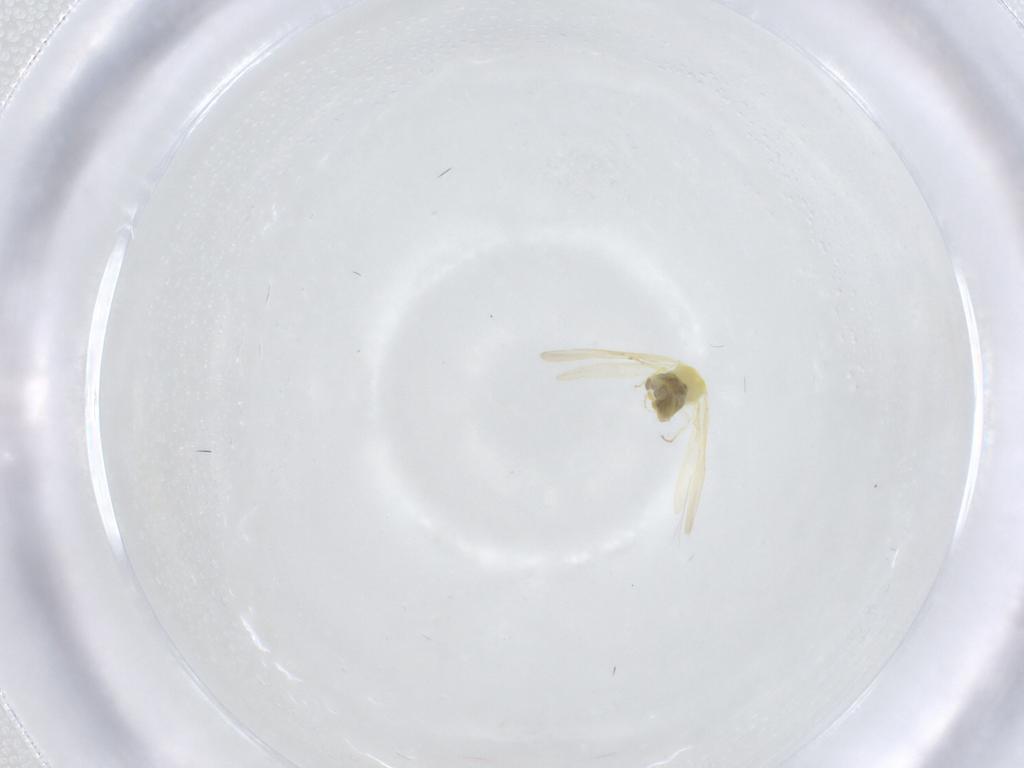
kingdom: Animalia
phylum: Arthropoda
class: Insecta
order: Hemiptera
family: Aleyrodidae
